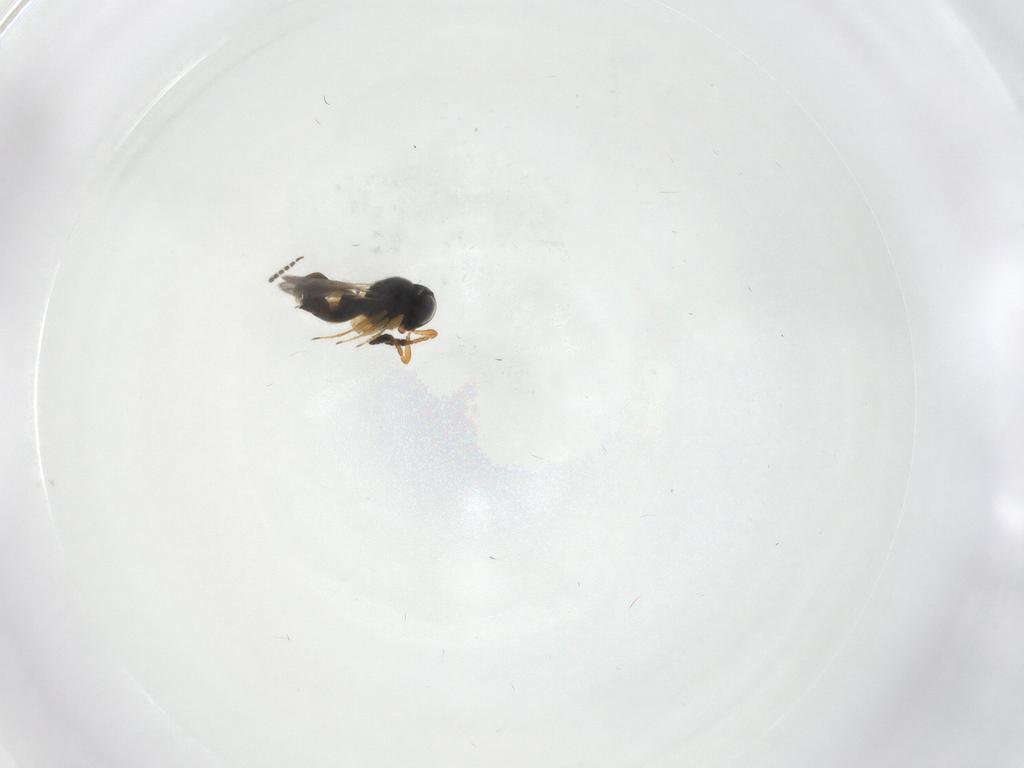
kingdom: Animalia
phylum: Arthropoda
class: Insecta
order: Hymenoptera
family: Scelionidae
